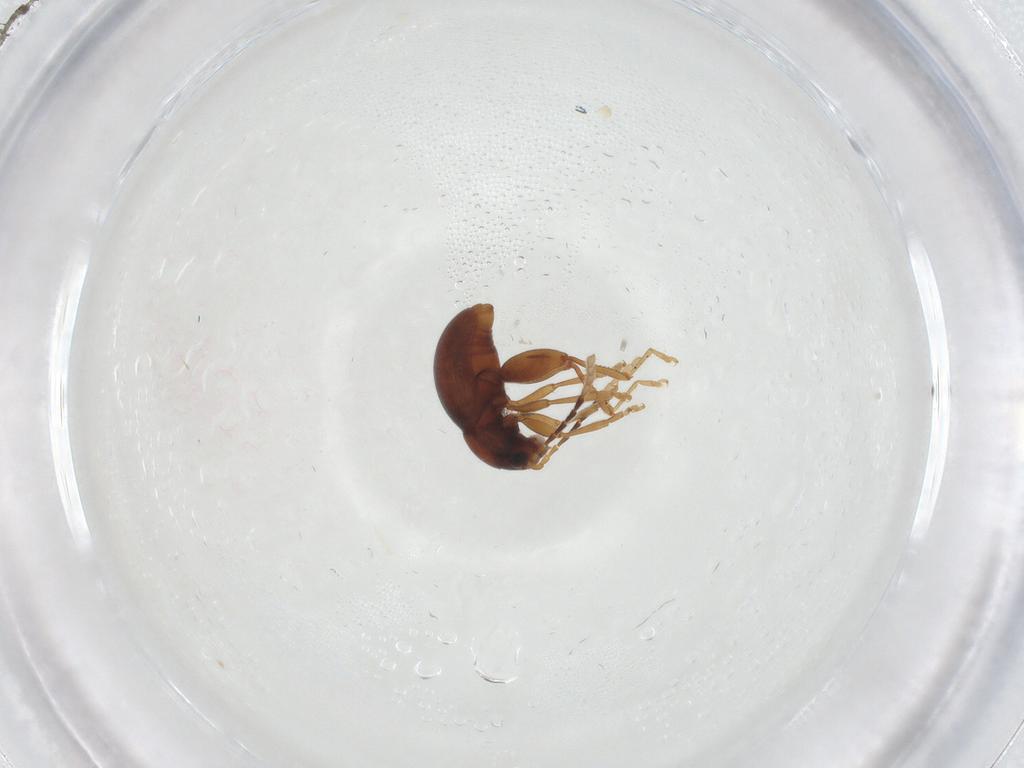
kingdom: Animalia
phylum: Arthropoda
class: Insecta
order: Coleoptera
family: Chrysomelidae
